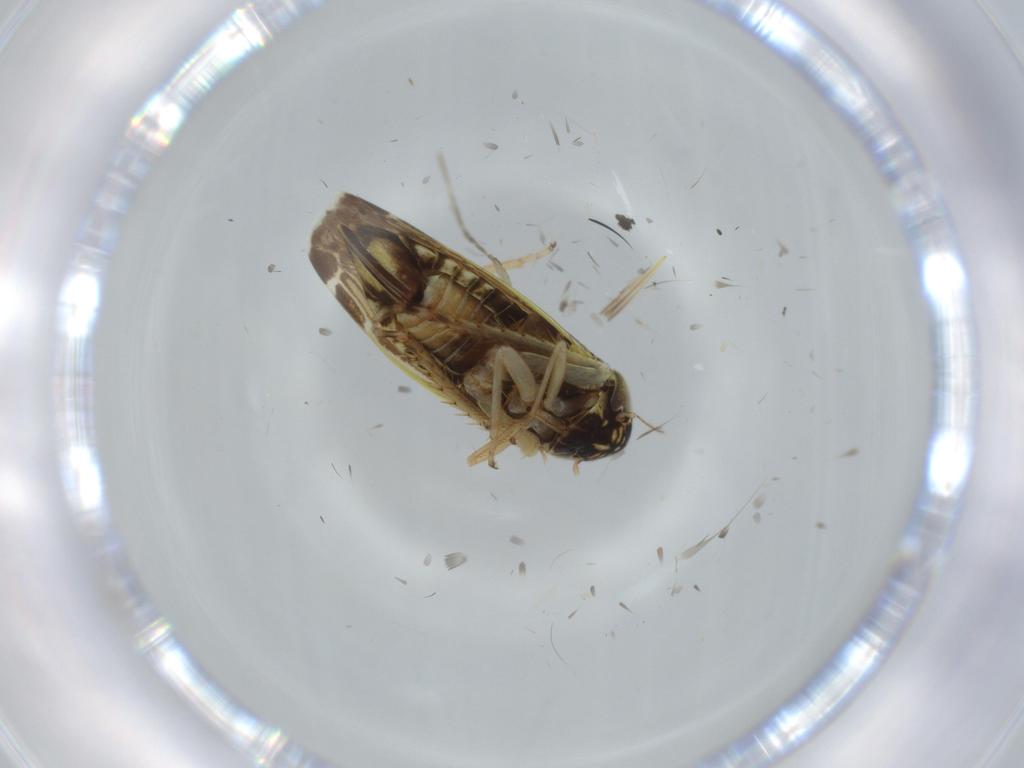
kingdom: Animalia
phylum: Arthropoda
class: Insecta
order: Hemiptera
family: Cicadellidae
